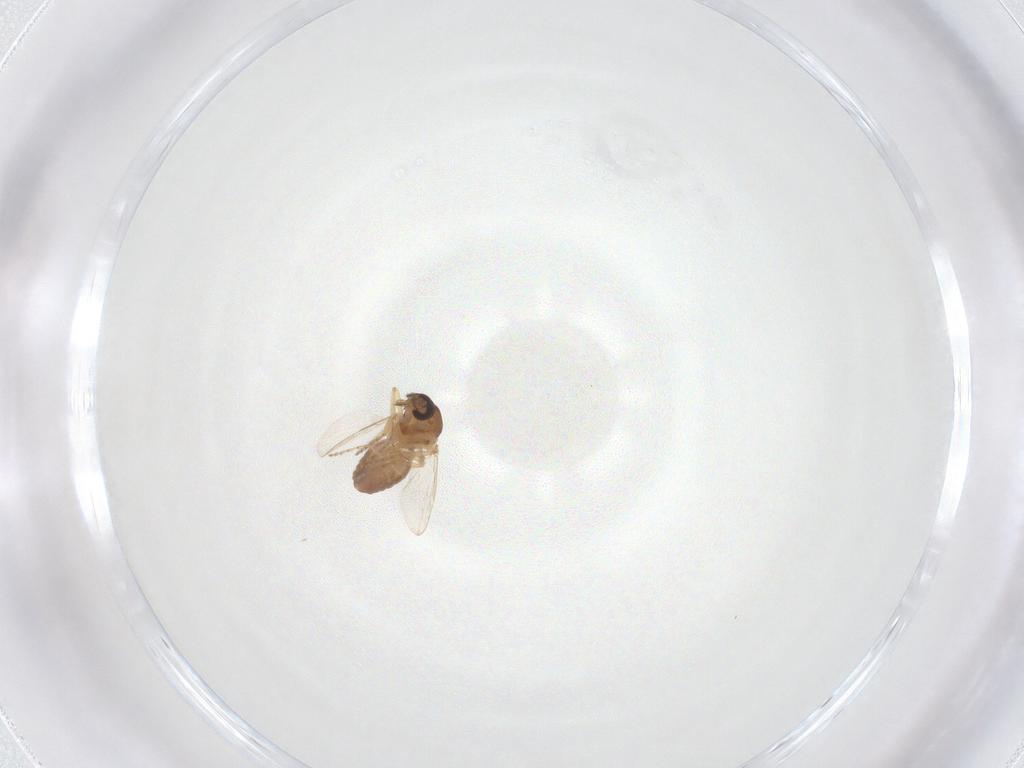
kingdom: Animalia
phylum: Arthropoda
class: Insecta
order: Diptera
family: Ceratopogonidae
